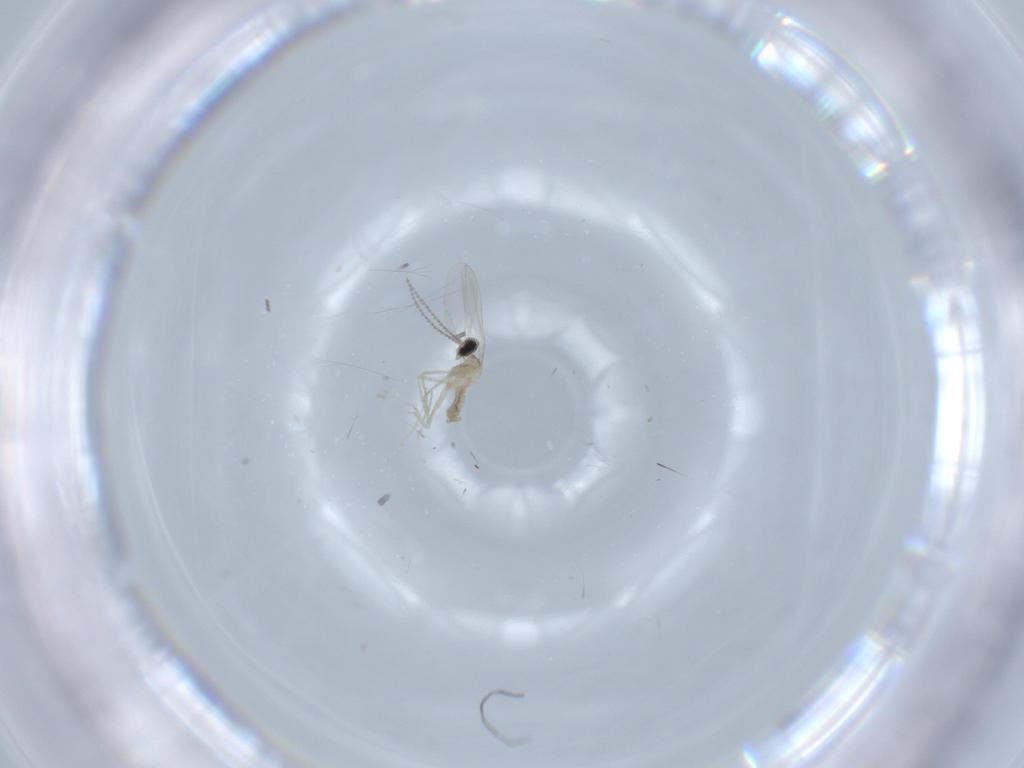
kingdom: Animalia
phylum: Arthropoda
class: Insecta
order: Diptera
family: Stratiomyidae
